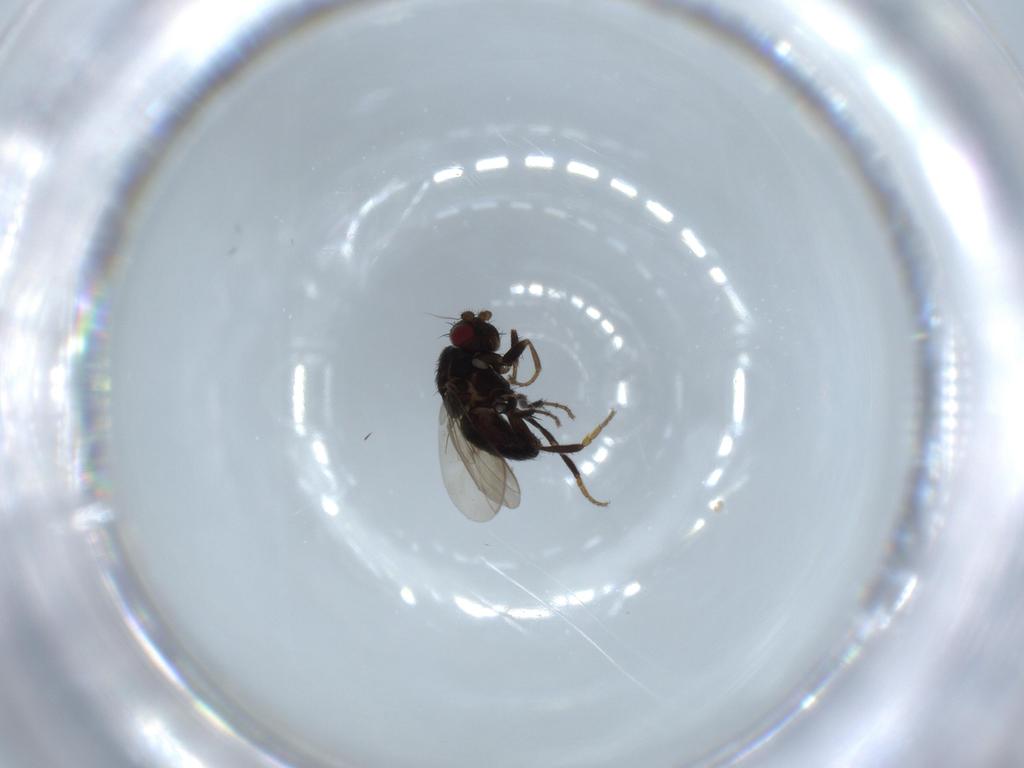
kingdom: Animalia
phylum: Arthropoda
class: Insecta
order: Diptera
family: Sphaeroceridae
